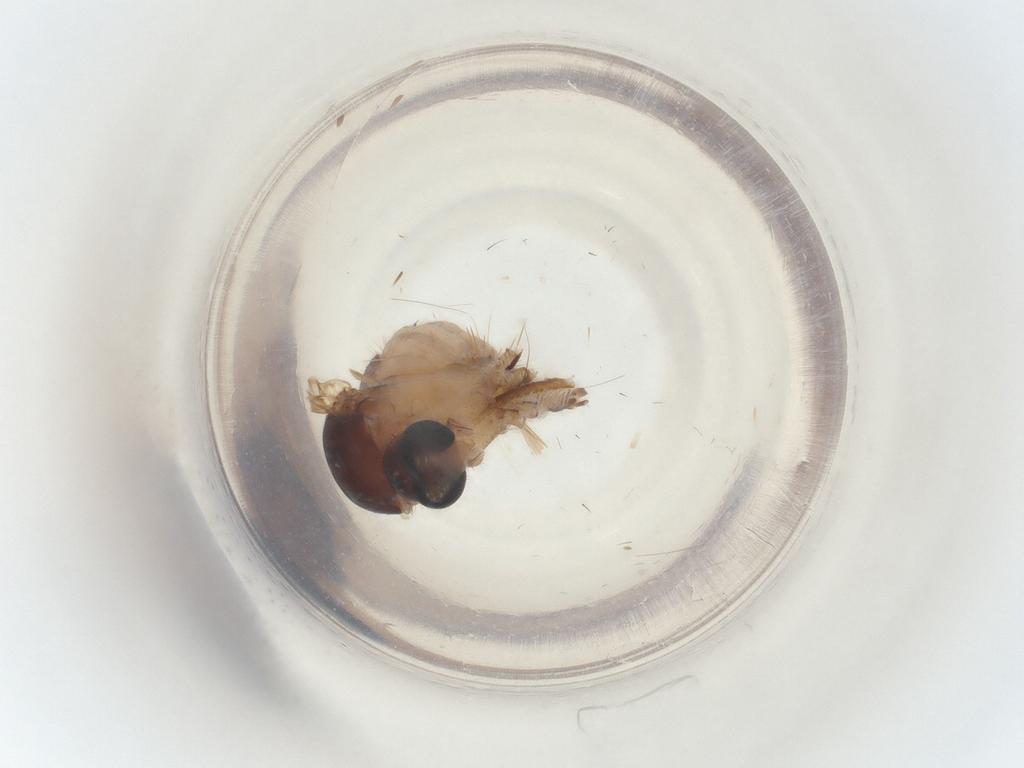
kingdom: Animalia
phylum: Arthropoda
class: Insecta
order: Diptera
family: Sciaridae
